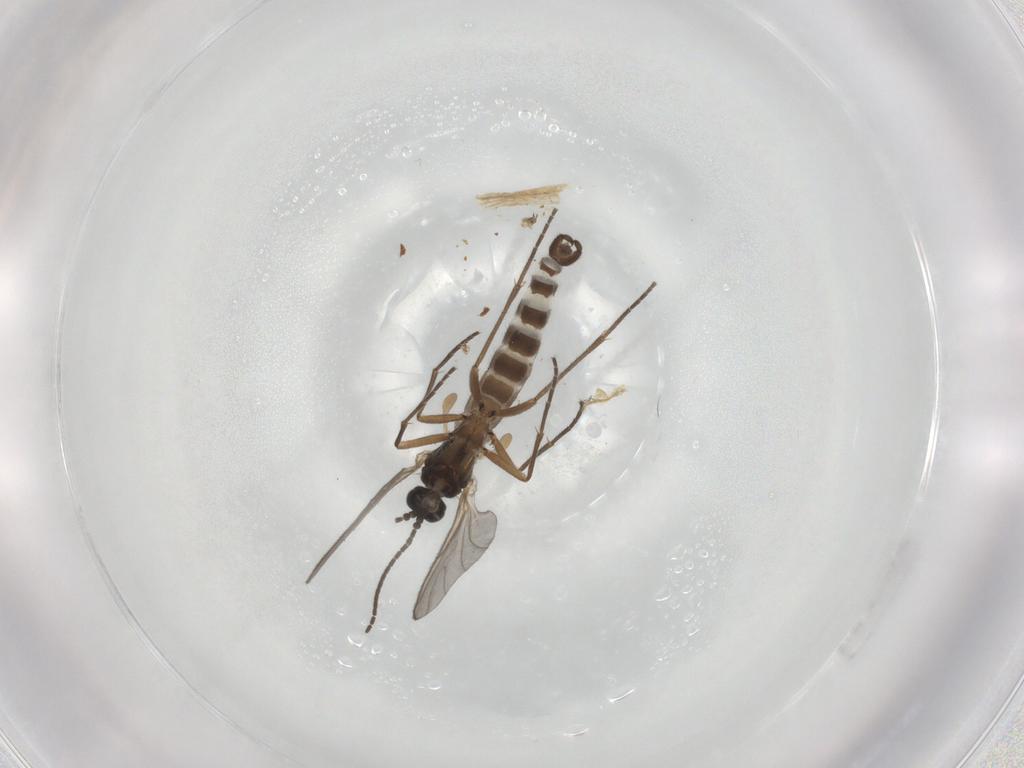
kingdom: Animalia
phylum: Arthropoda
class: Insecta
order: Diptera
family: Sciaridae
